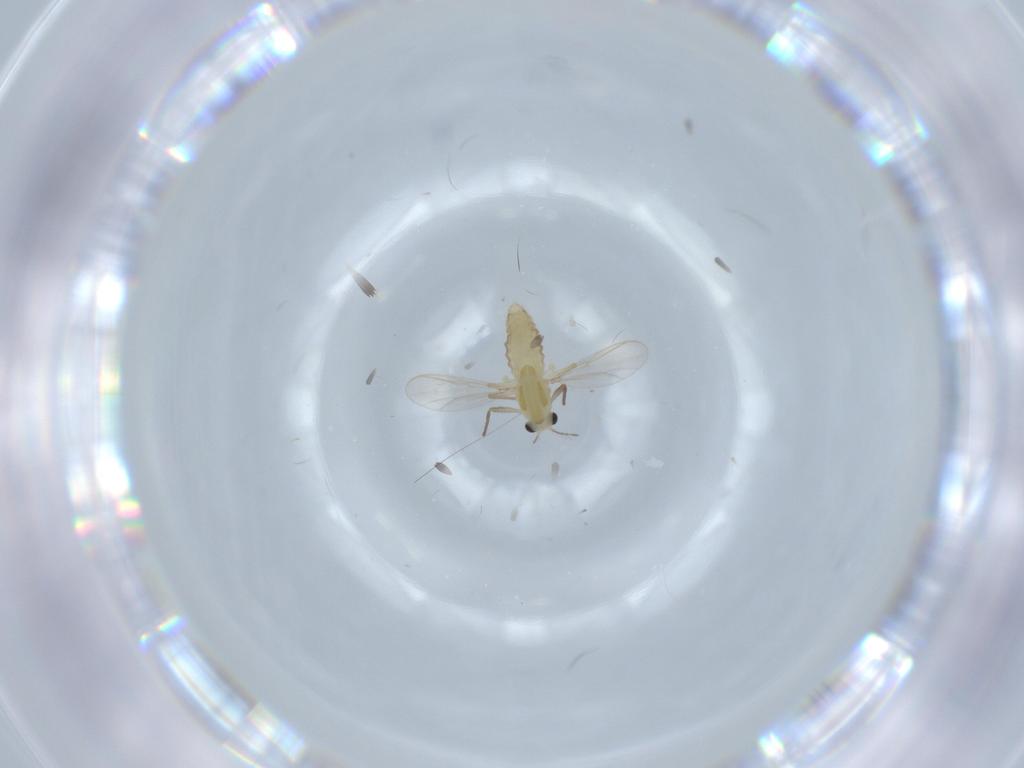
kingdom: Animalia
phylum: Arthropoda
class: Insecta
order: Diptera
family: Chironomidae
